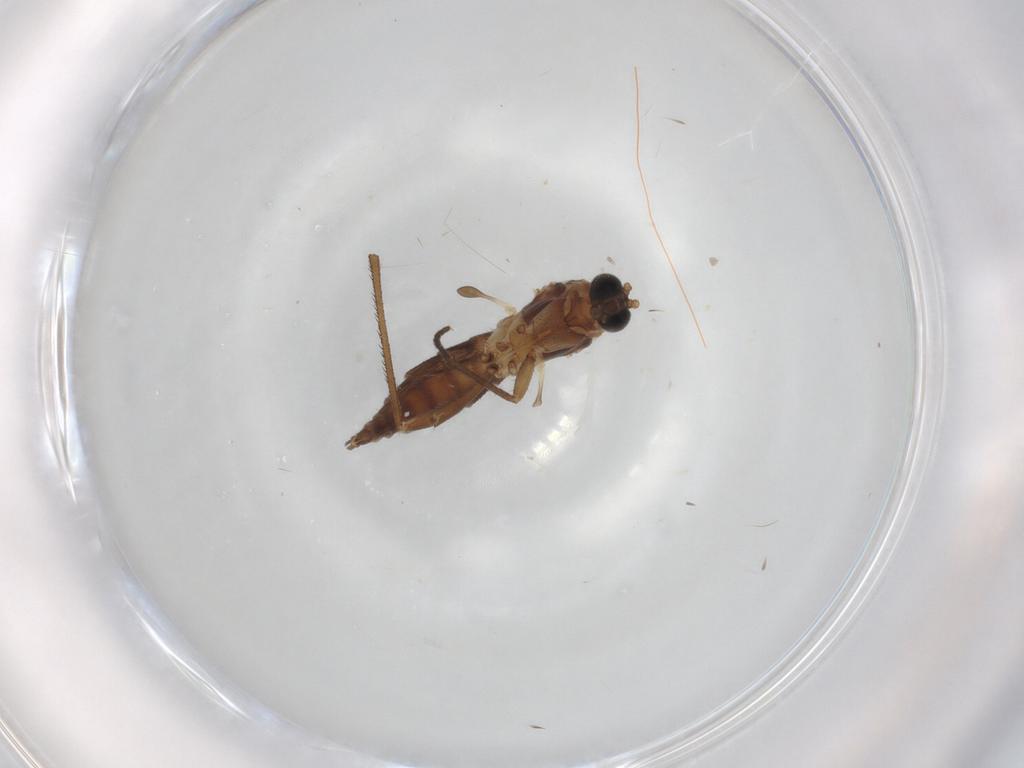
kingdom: Animalia
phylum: Arthropoda
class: Insecta
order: Diptera
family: Sciaridae
